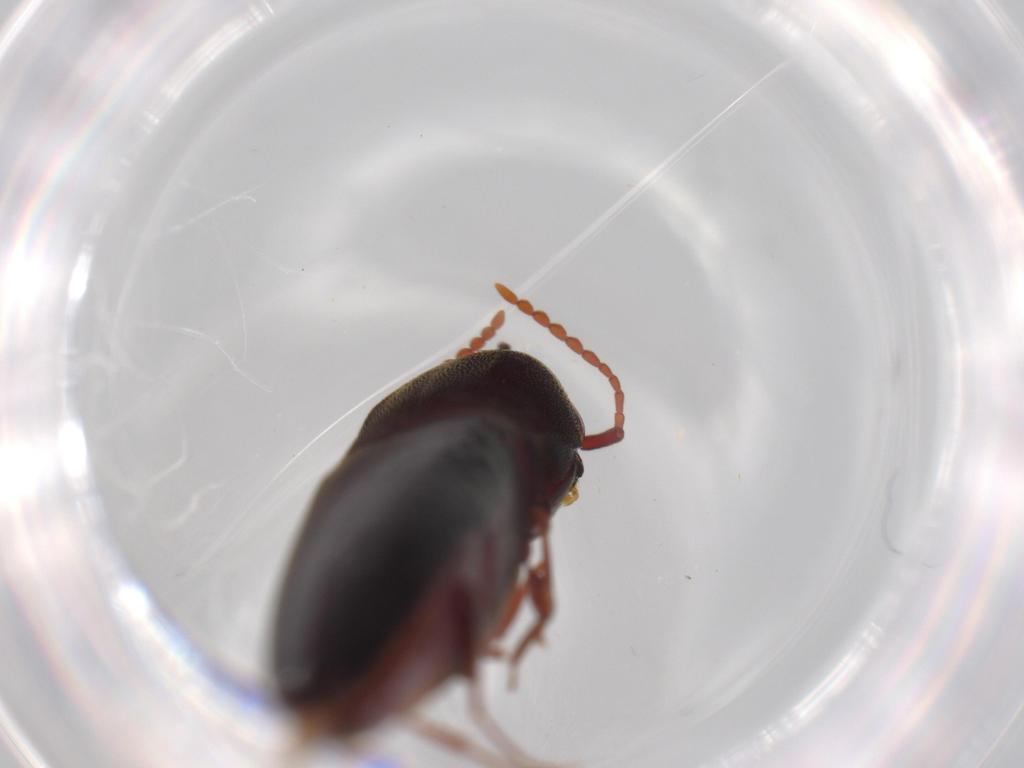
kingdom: Animalia
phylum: Arthropoda
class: Insecta
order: Coleoptera
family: Eucnemidae
